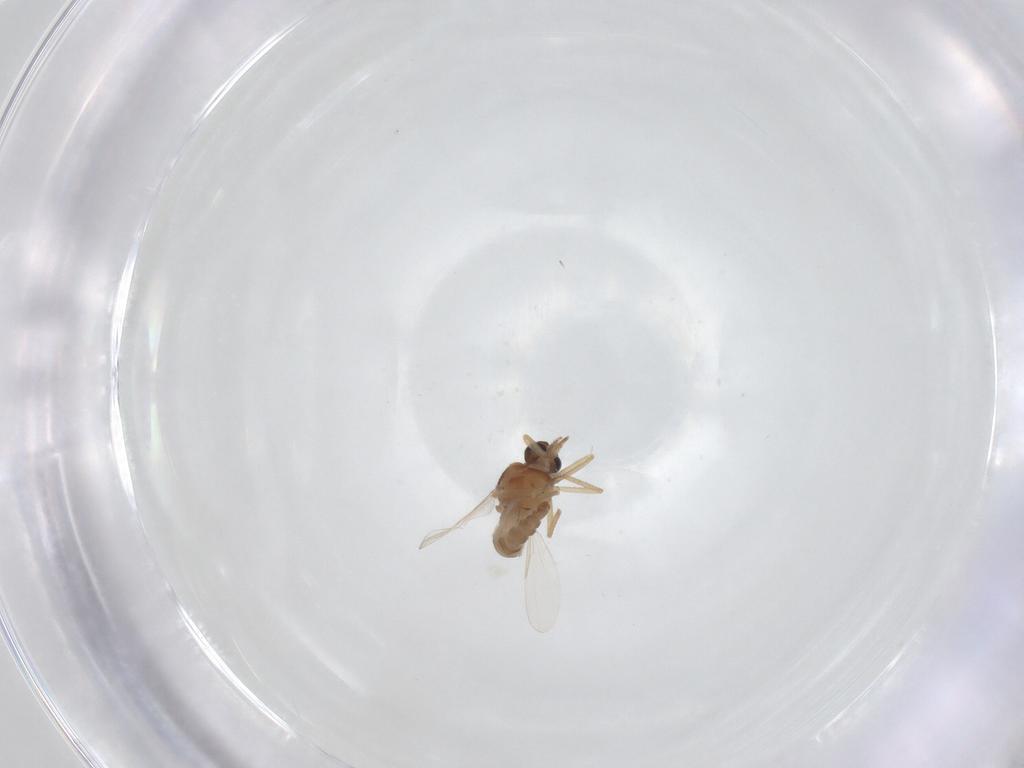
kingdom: Animalia
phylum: Arthropoda
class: Insecta
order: Diptera
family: Ceratopogonidae
